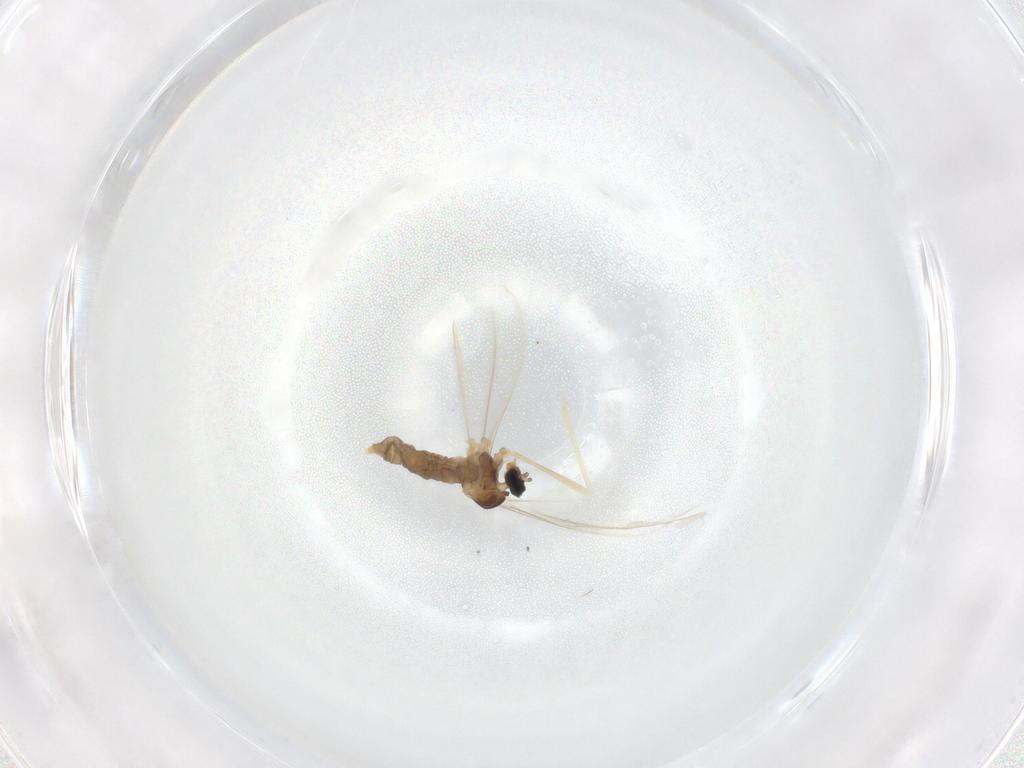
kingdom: Animalia
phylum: Arthropoda
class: Insecta
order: Diptera
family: Cecidomyiidae
